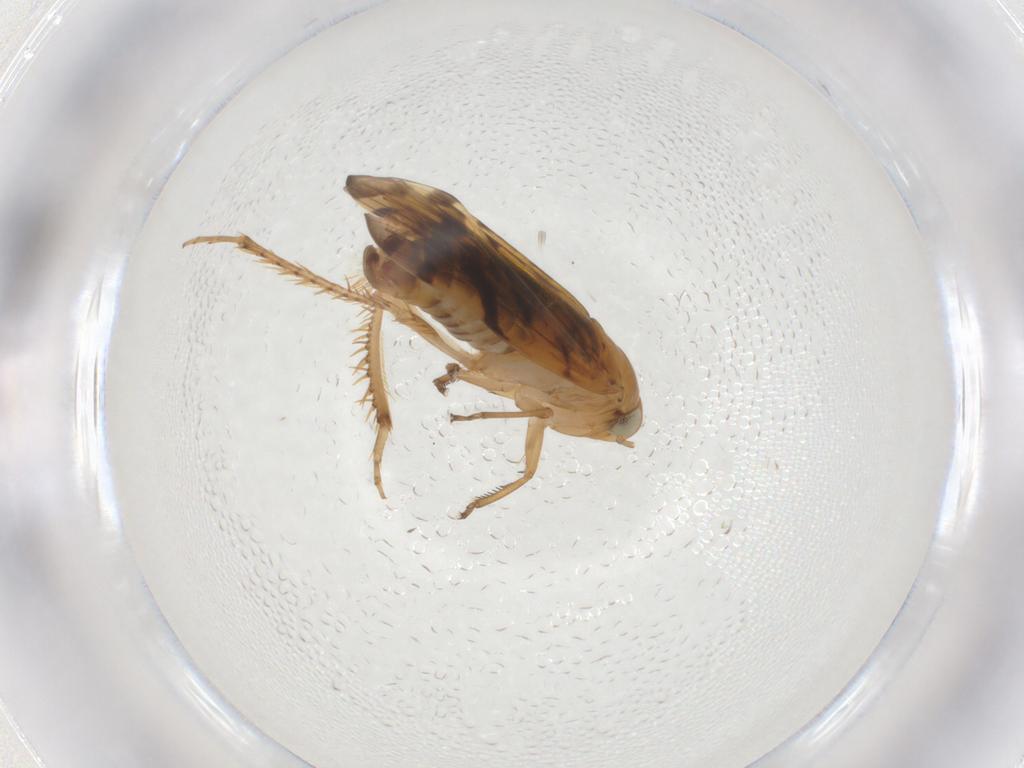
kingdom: Animalia
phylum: Arthropoda
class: Insecta
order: Hemiptera
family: Cicadellidae
